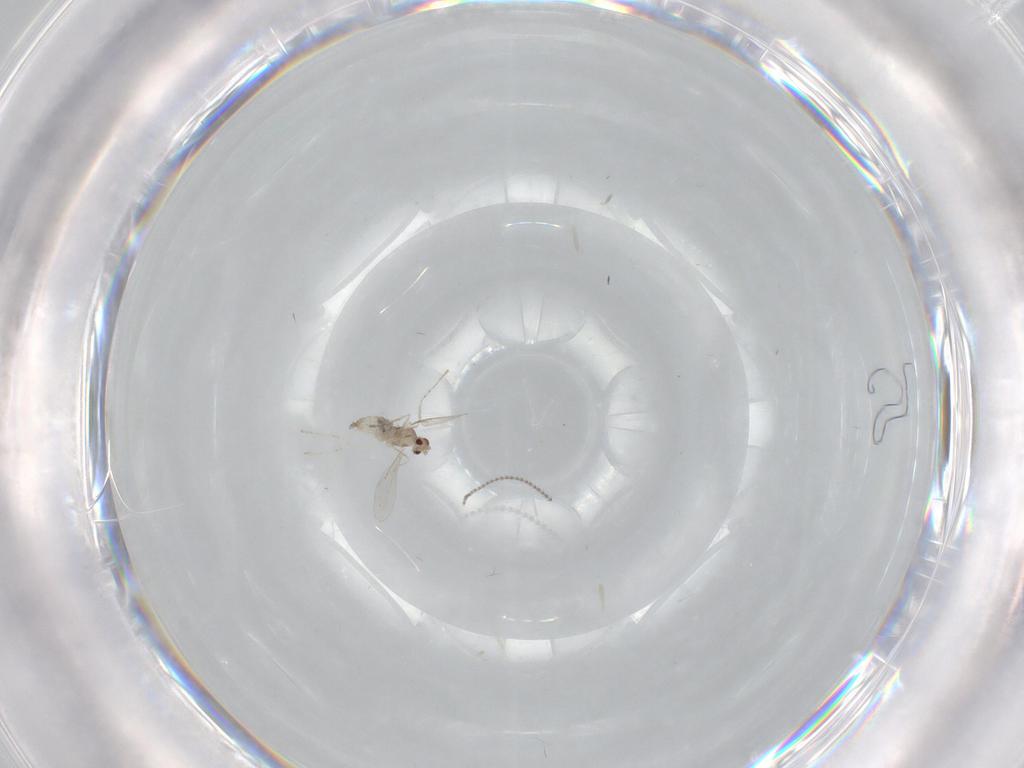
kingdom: Animalia
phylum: Arthropoda
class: Insecta
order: Diptera
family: Cecidomyiidae
